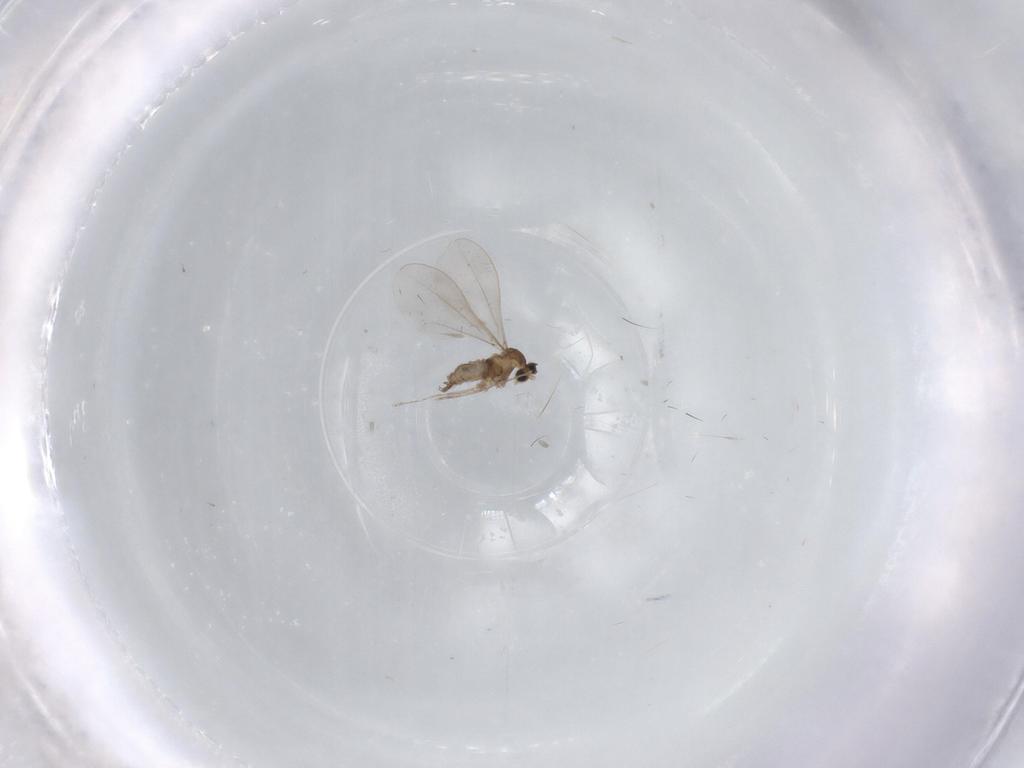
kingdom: Animalia
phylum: Arthropoda
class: Insecta
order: Diptera
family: Cecidomyiidae
